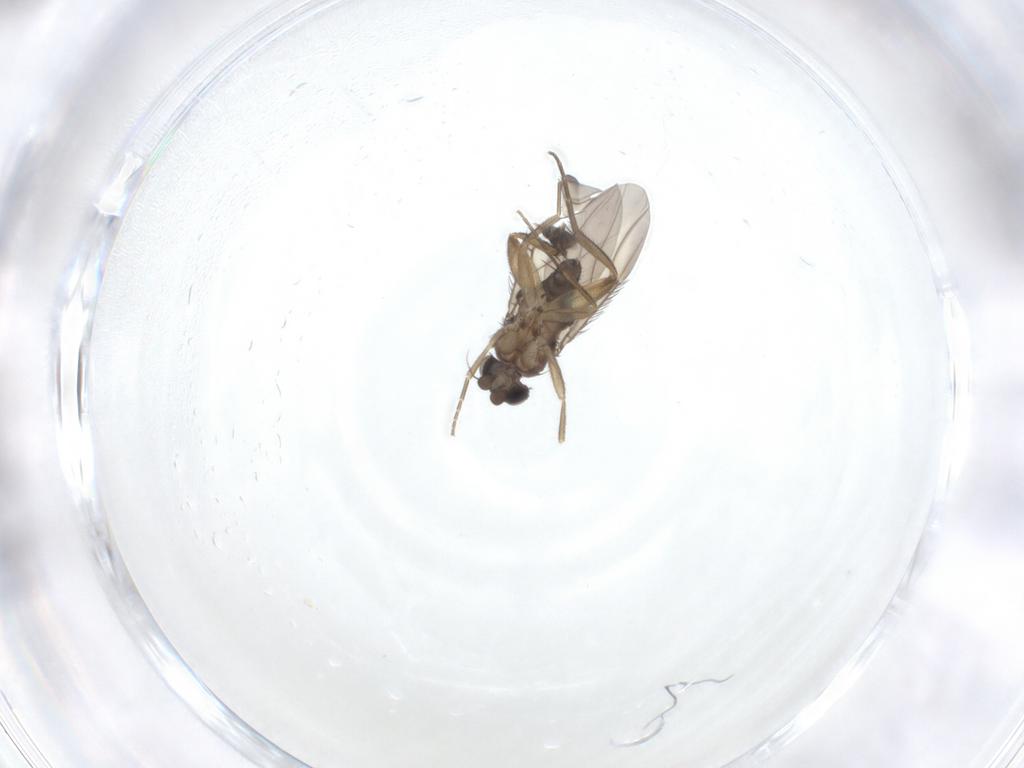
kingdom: Animalia
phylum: Arthropoda
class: Insecta
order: Diptera
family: Phoridae
